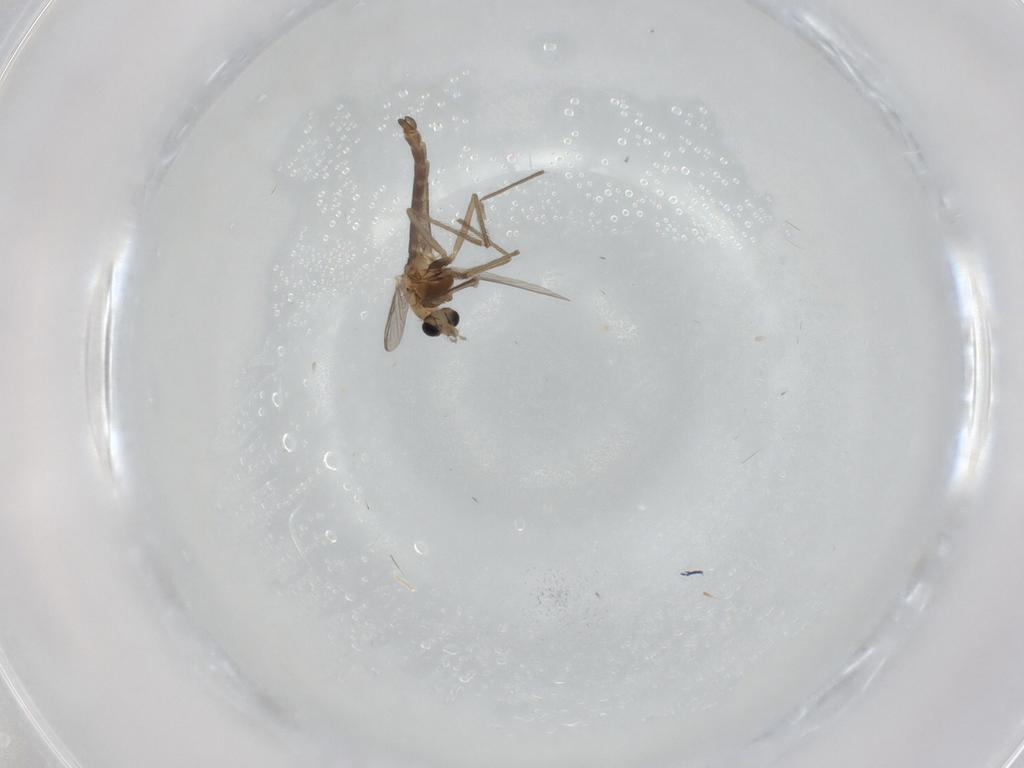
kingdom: Animalia
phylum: Arthropoda
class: Insecta
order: Diptera
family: Chironomidae
